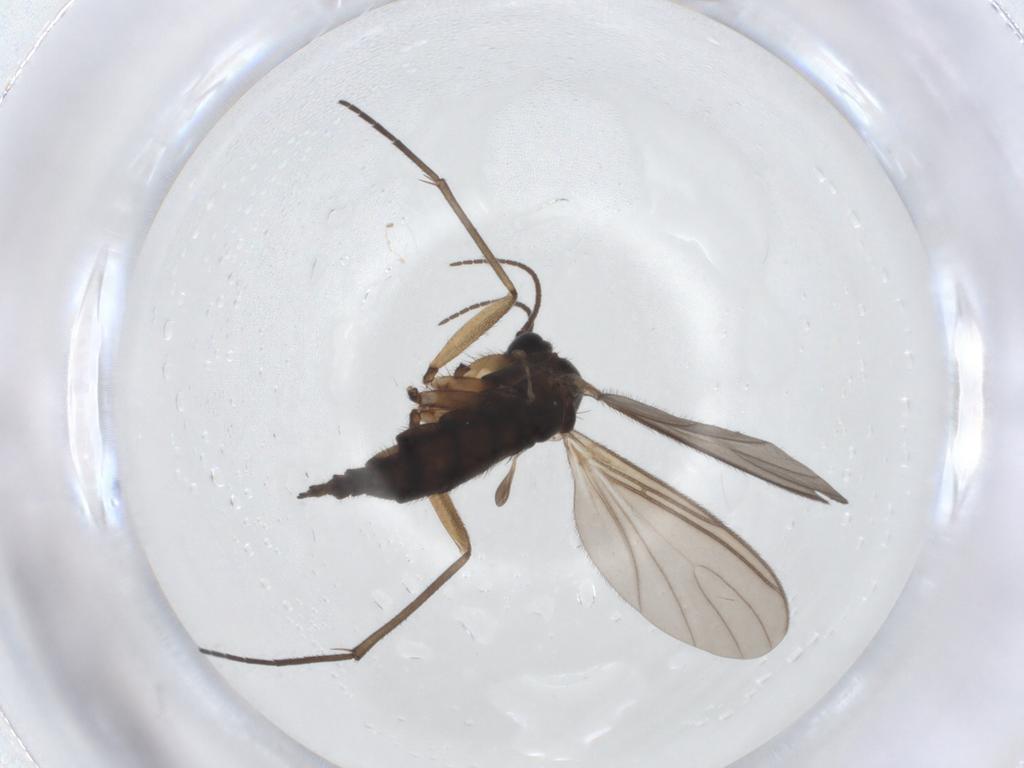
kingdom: Animalia
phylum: Arthropoda
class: Insecta
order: Diptera
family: Sciaridae
